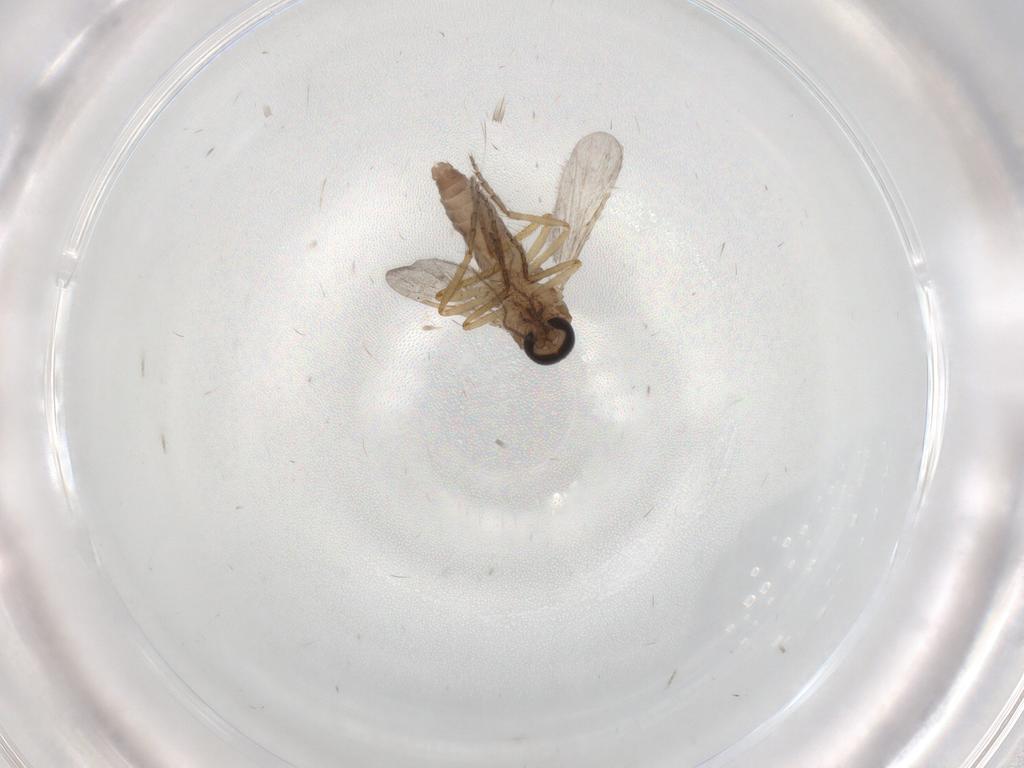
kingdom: Animalia
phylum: Arthropoda
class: Insecta
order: Diptera
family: Ceratopogonidae
